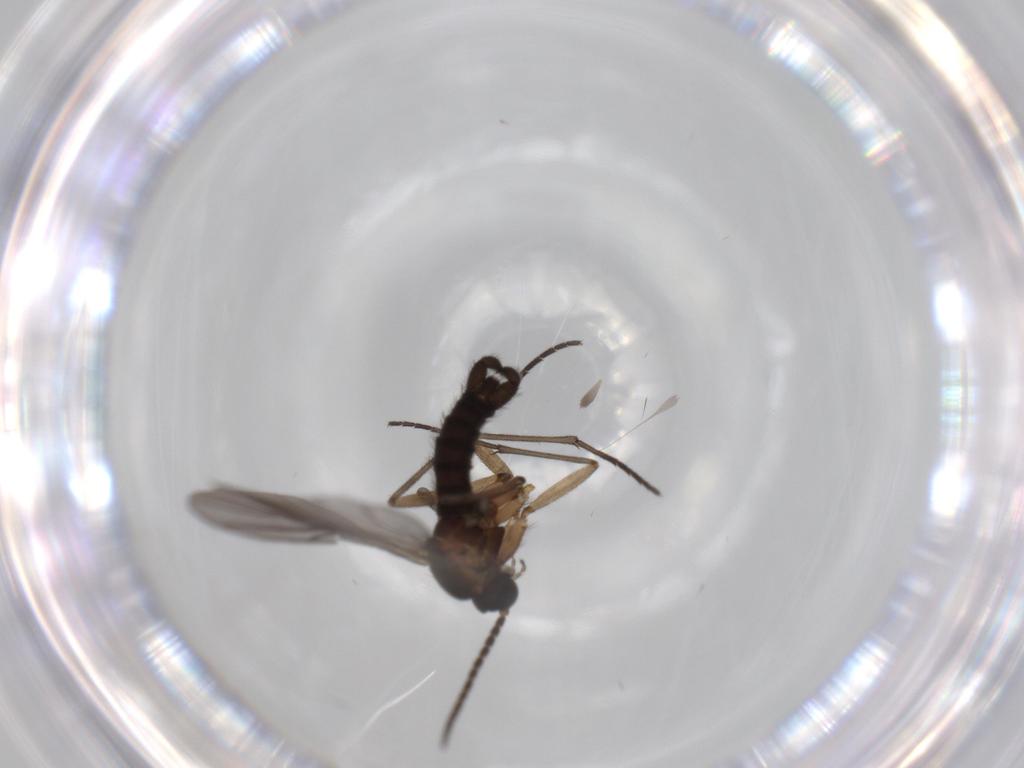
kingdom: Animalia
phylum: Arthropoda
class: Insecta
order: Diptera
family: Sciaridae
